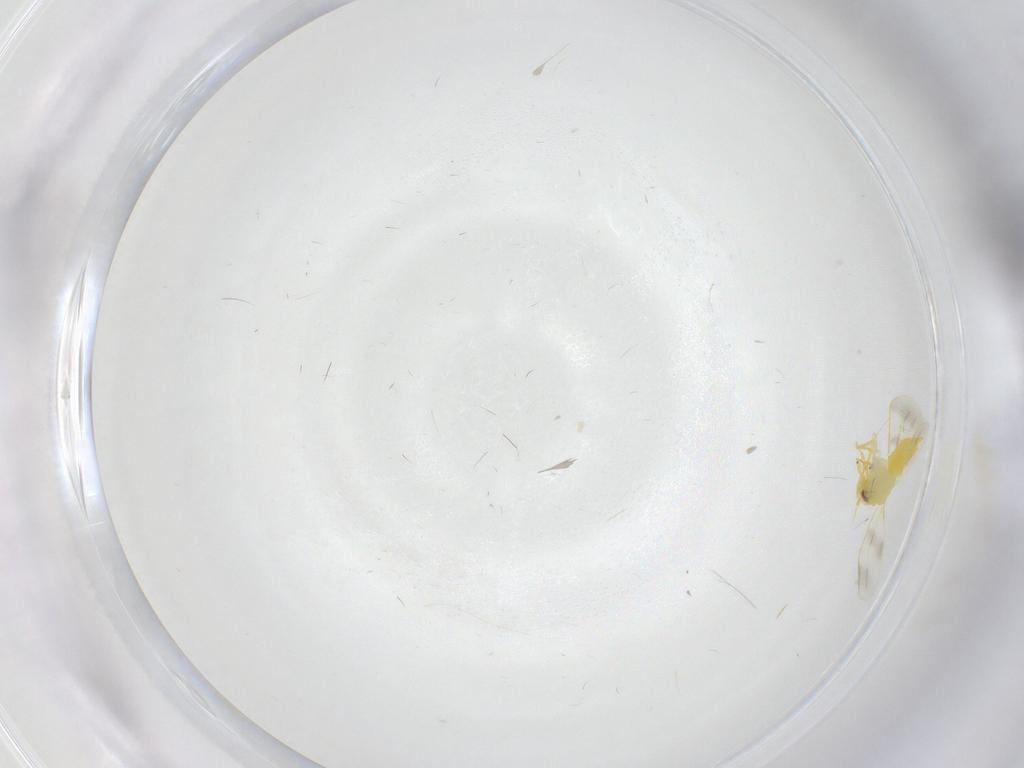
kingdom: Animalia
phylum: Arthropoda
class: Insecta
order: Hemiptera
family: Aleyrodidae
